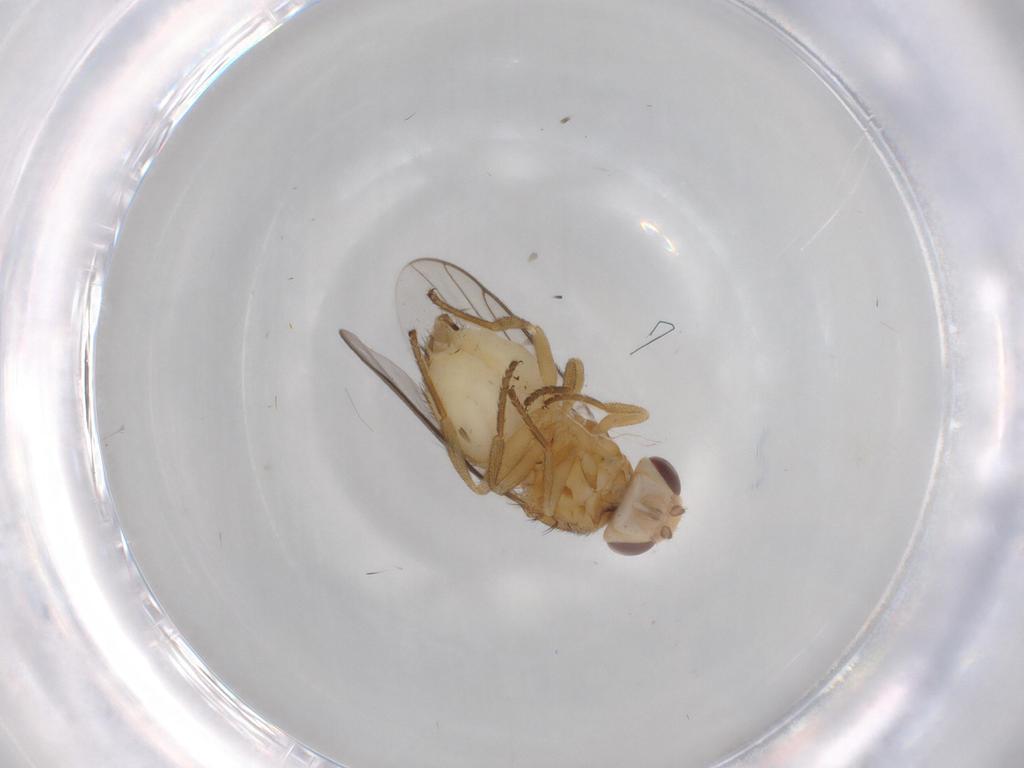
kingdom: Animalia
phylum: Arthropoda
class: Insecta
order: Diptera
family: Chloropidae
